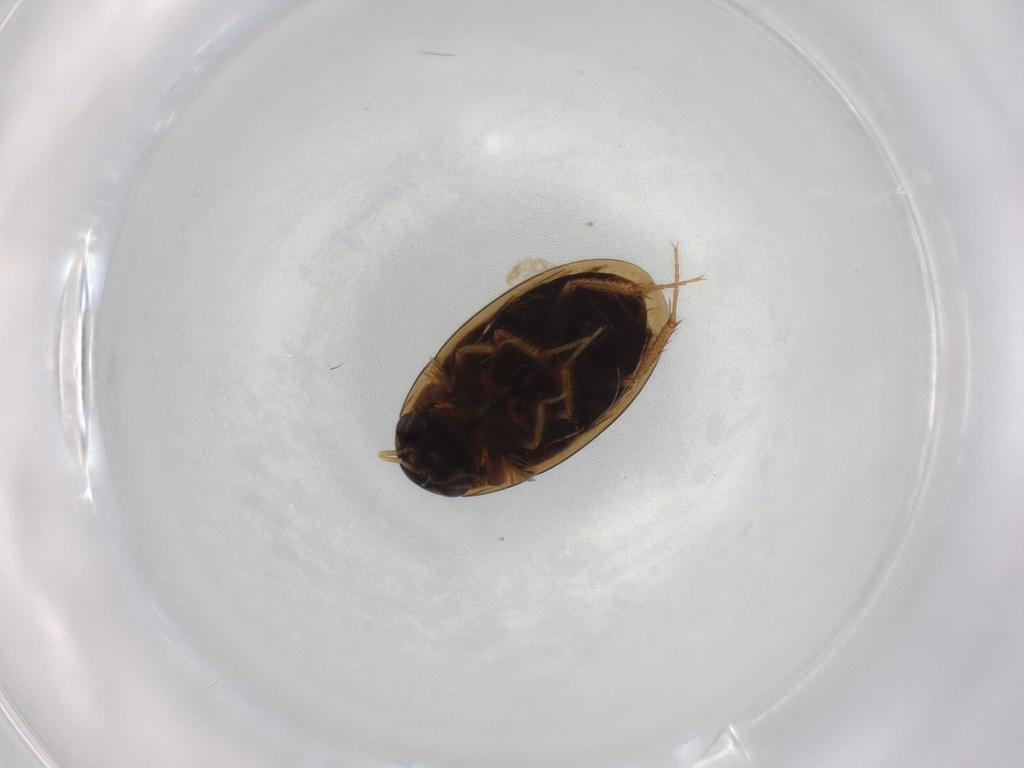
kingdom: Animalia
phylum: Arthropoda
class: Insecta
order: Coleoptera
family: Hydrophilidae
